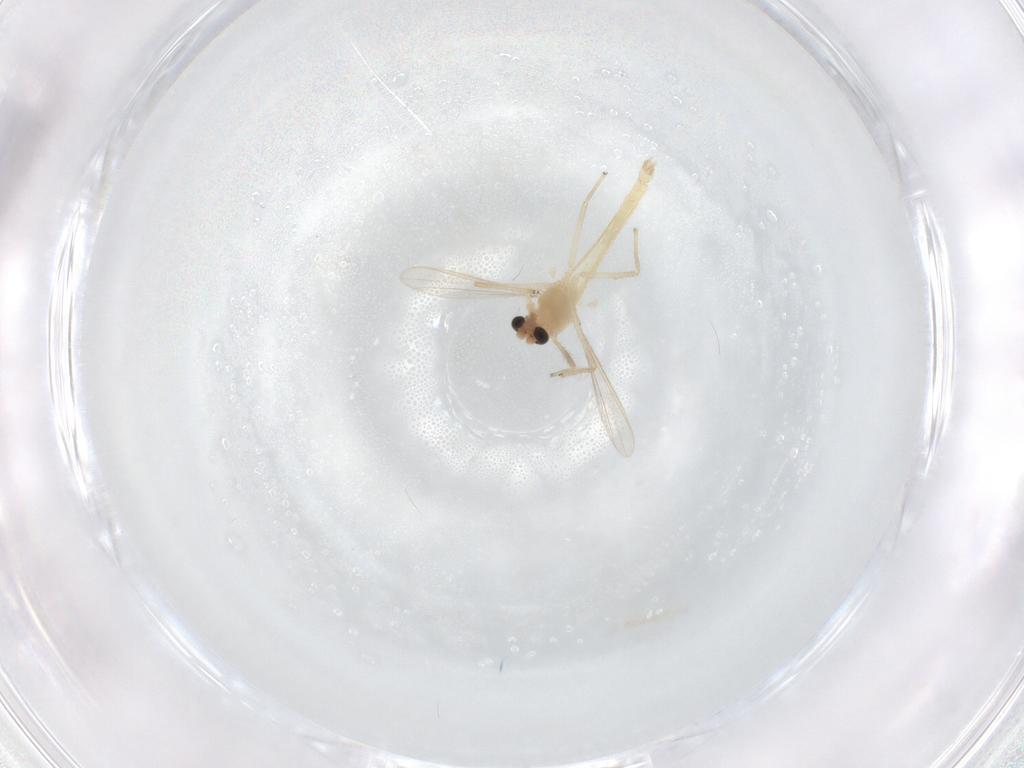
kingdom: Animalia
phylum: Arthropoda
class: Insecta
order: Diptera
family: Chironomidae
